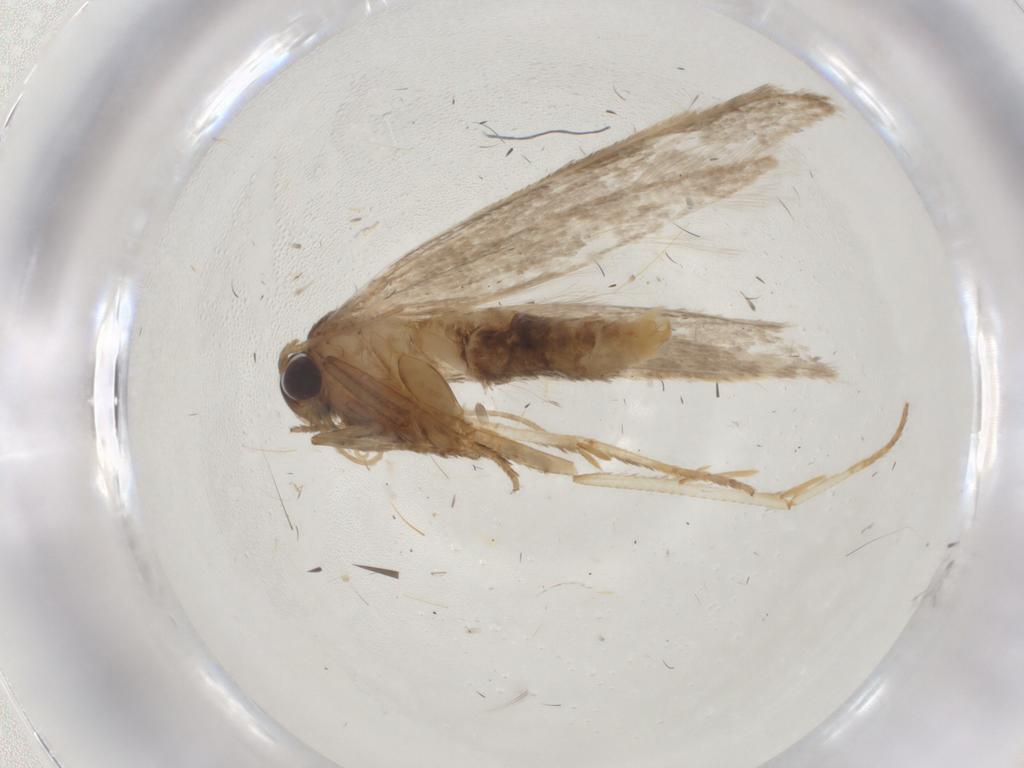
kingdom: Animalia
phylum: Arthropoda
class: Insecta
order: Lepidoptera
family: Coleophoridae
